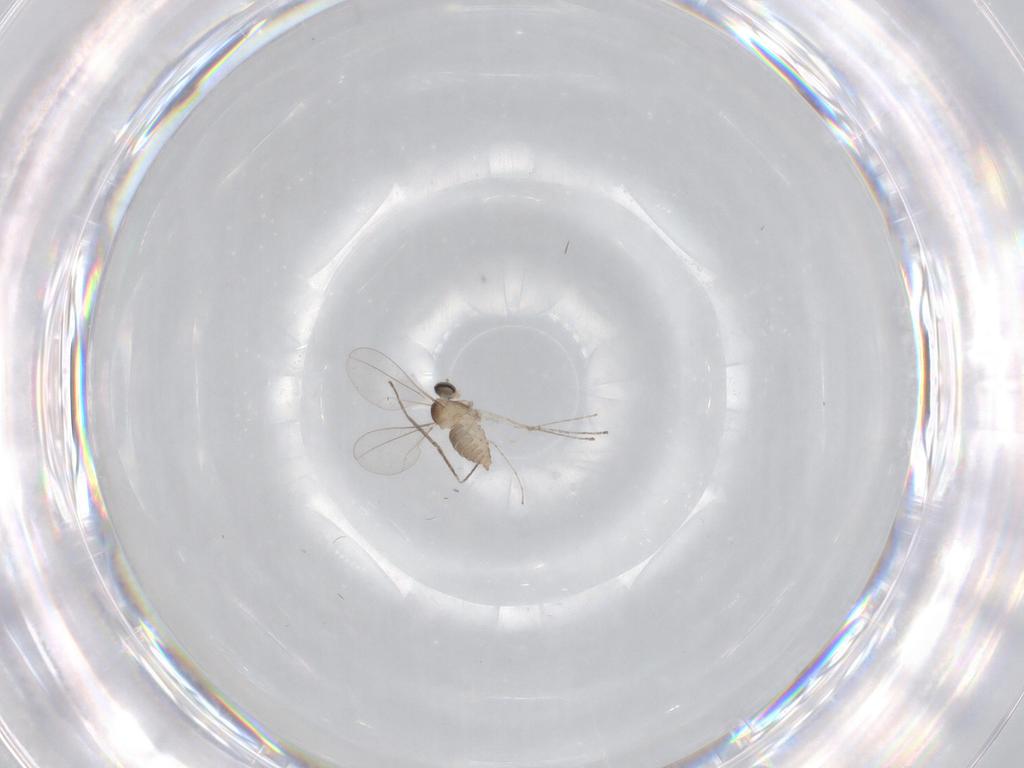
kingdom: Animalia
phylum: Arthropoda
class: Insecta
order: Diptera
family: Cecidomyiidae
